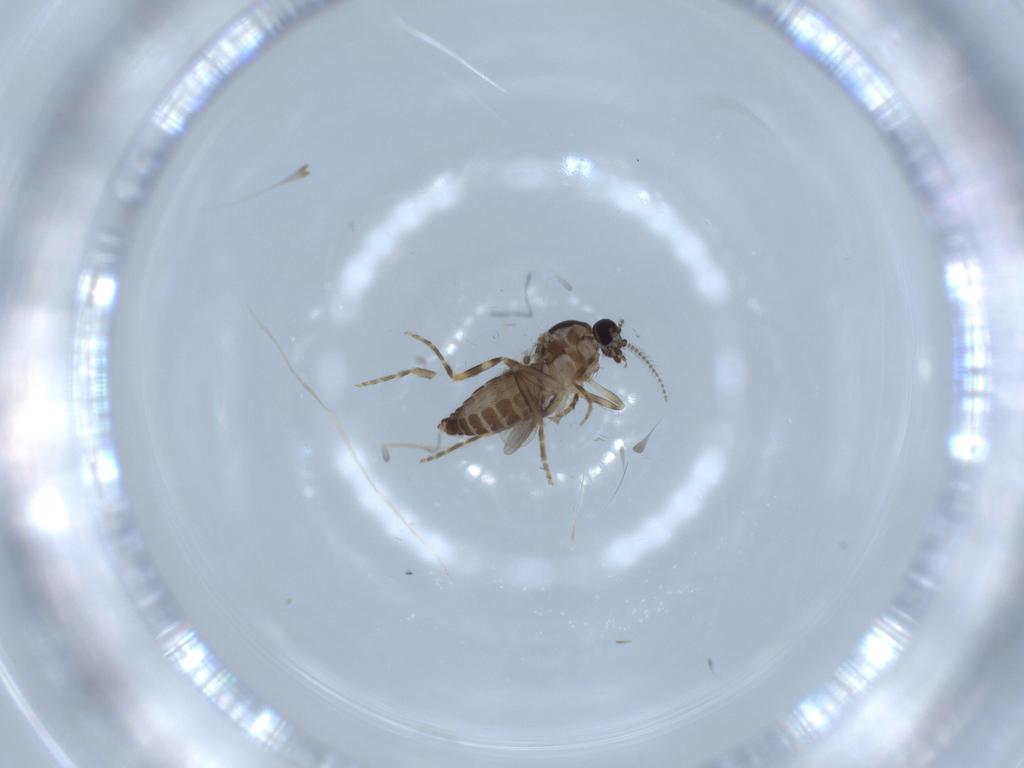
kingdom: Animalia
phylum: Arthropoda
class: Insecta
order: Diptera
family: Ceratopogonidae
